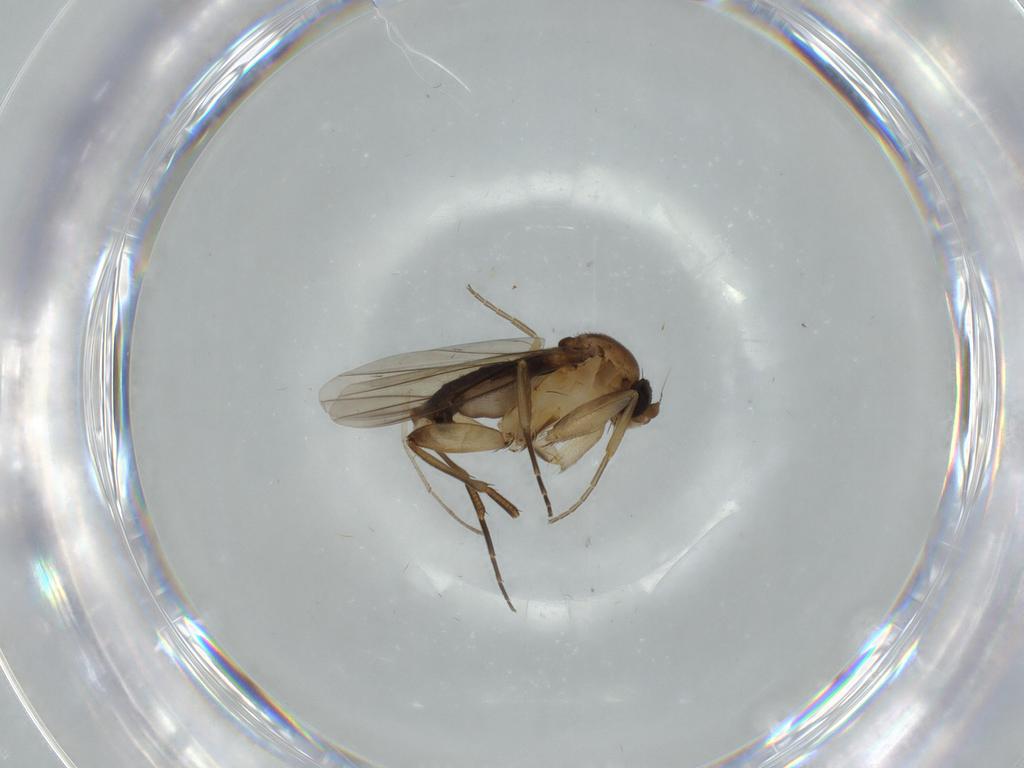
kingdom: Animalia
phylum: Arthropoda
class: Insecta
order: Diptera
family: Phoridae
